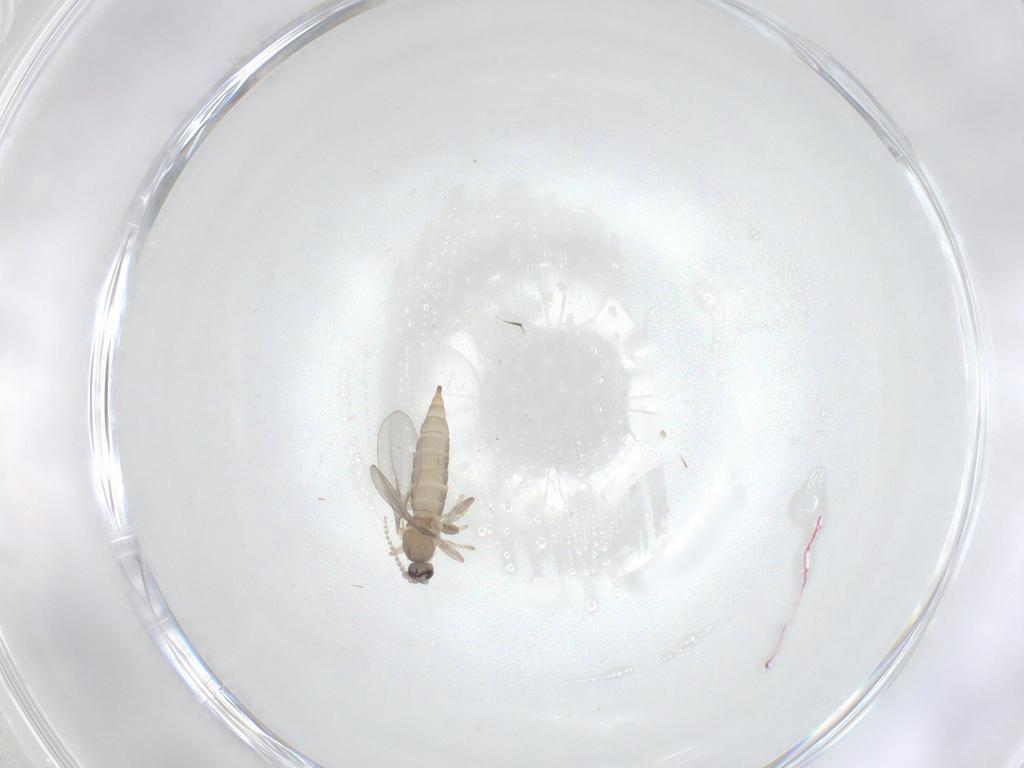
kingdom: Animalia
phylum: Arthropoda
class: Insecta
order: Diptera
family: Cecidomyiidae
